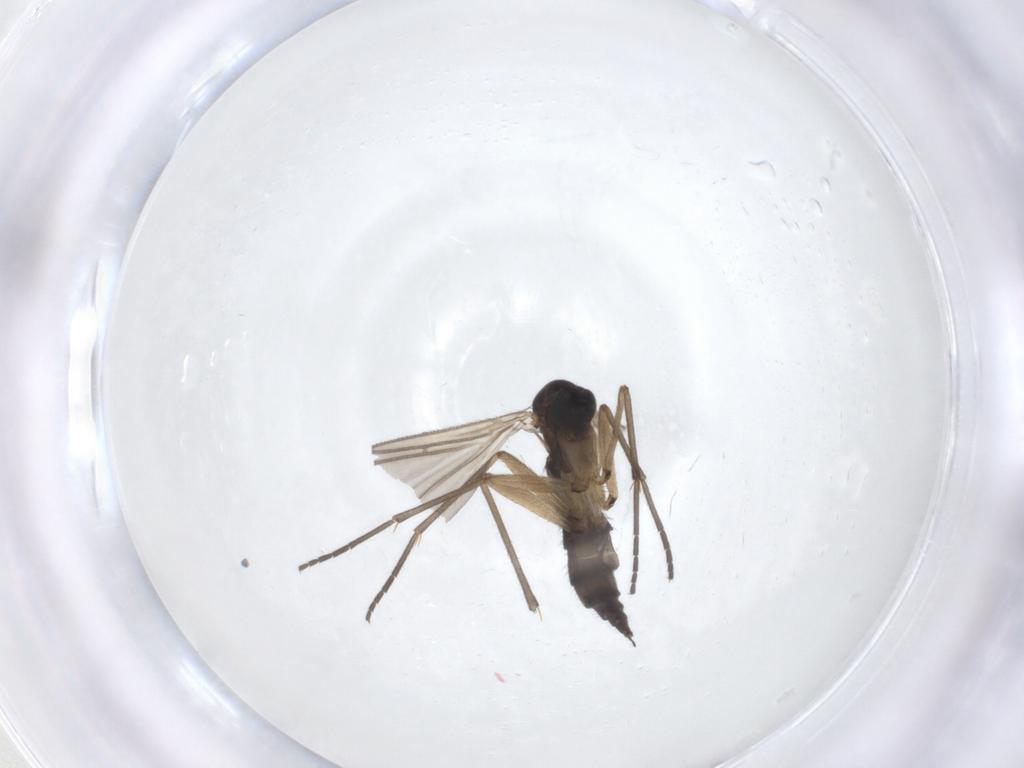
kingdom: Animalia
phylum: Arthropoda
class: Insecta
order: Diptera
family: Sciaridae
